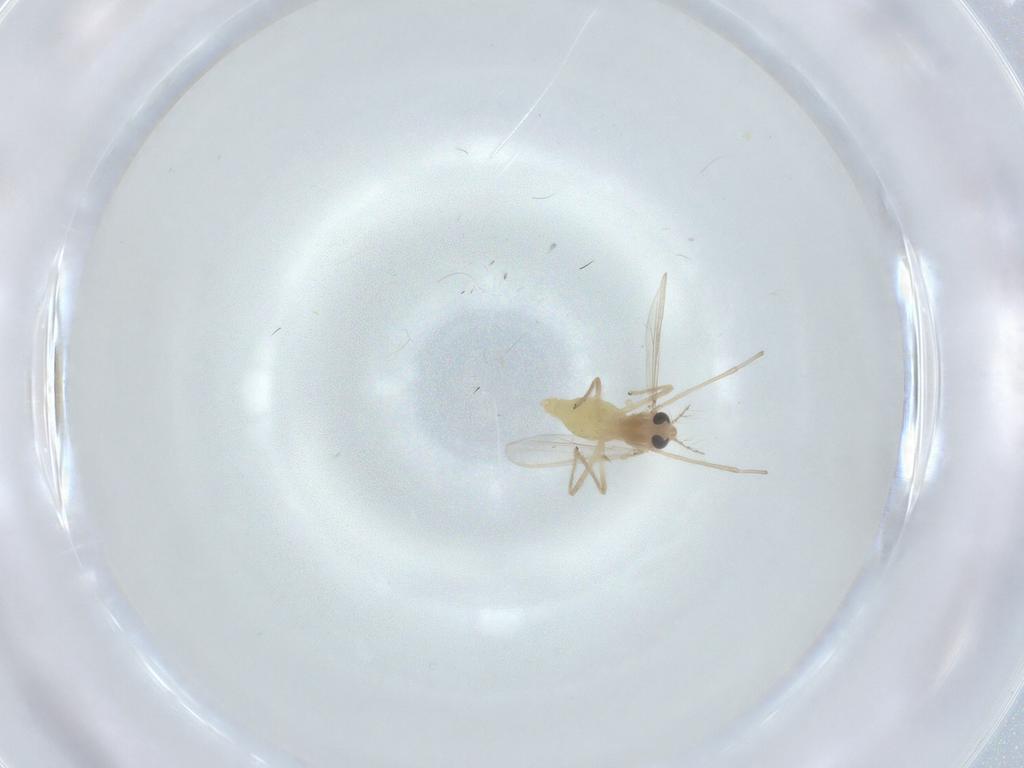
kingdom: Animalia
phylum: Arthropoda
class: Insecta
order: Diptera
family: Chironomidae
